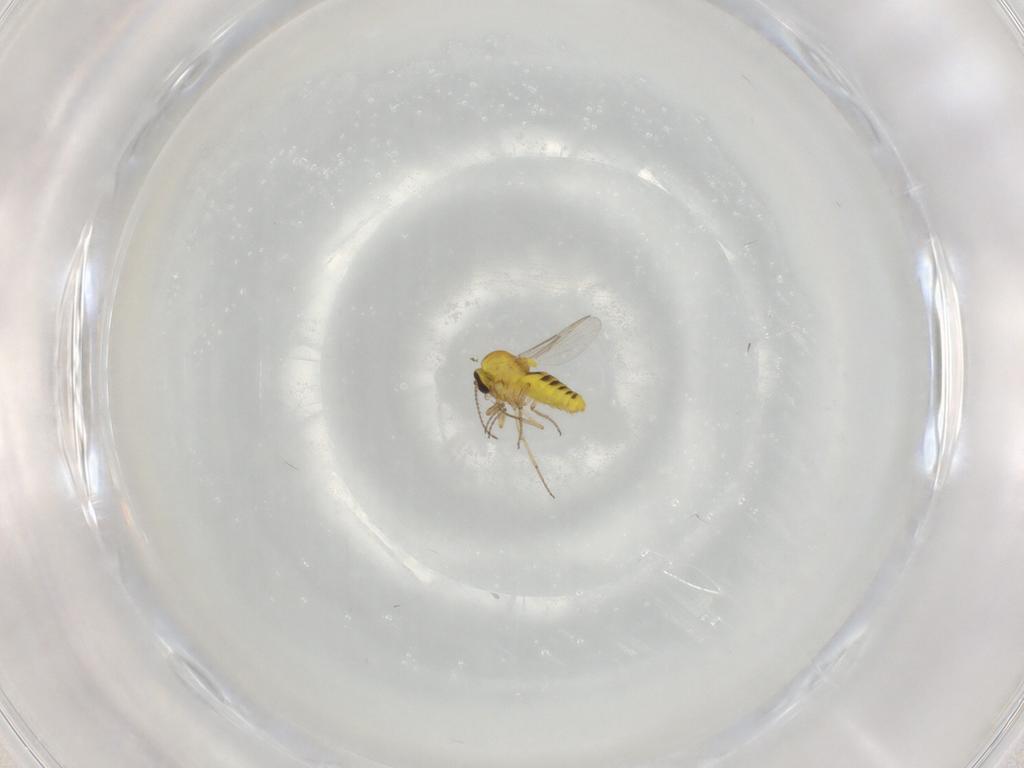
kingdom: Animalia
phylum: Arthropoda
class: Insecta
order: Diptera
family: Ceratopogonidae
